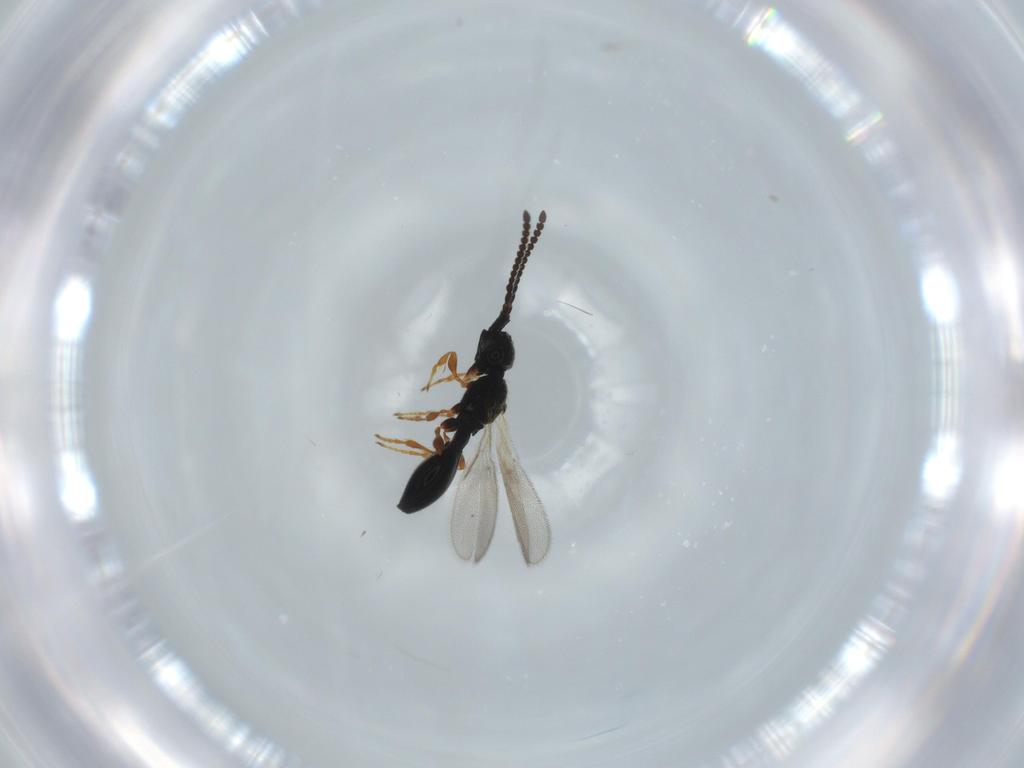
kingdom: Animalia
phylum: Arthropoda
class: Insecta
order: Hymenoptera
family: Diapriidae
